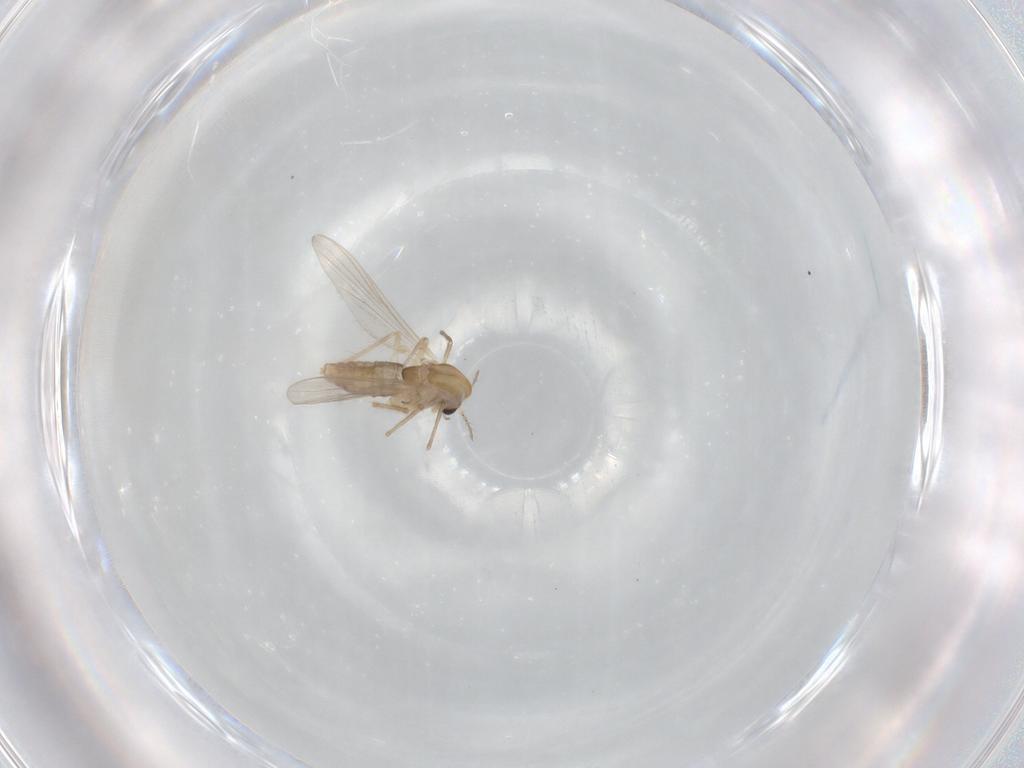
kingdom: Animalia
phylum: Arthropoda
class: Insecta
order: Diptera
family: Chironomidae
